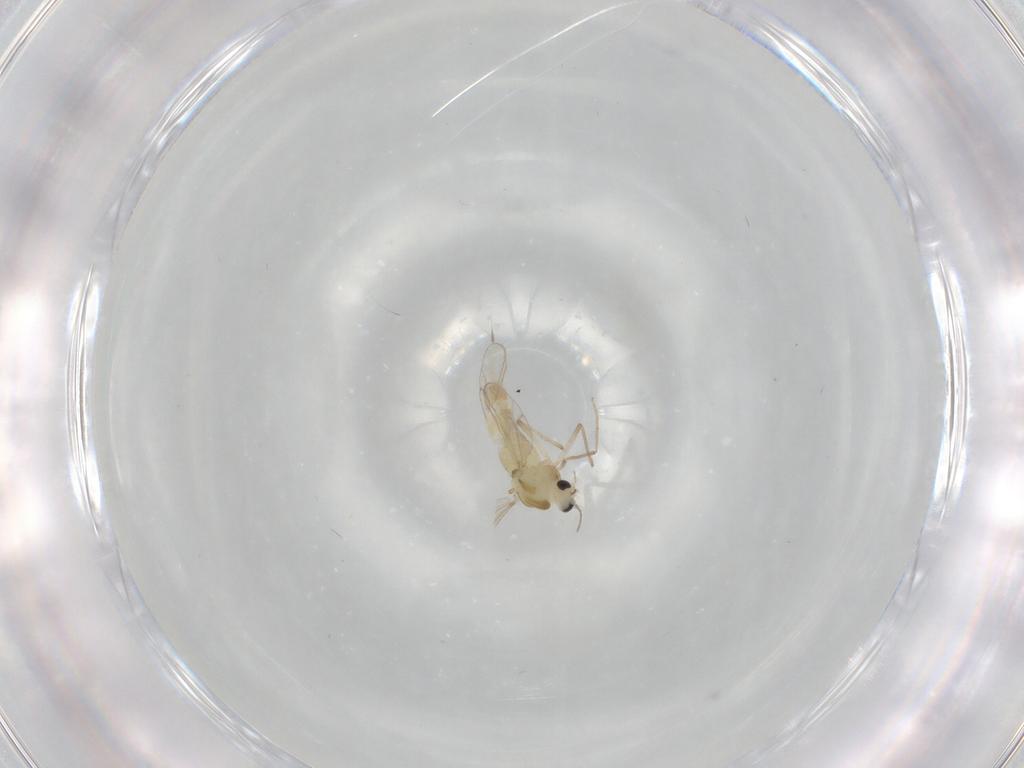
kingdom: Animalia
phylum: Arthropoda
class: Insecta
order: Diptera
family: Chironomidae
